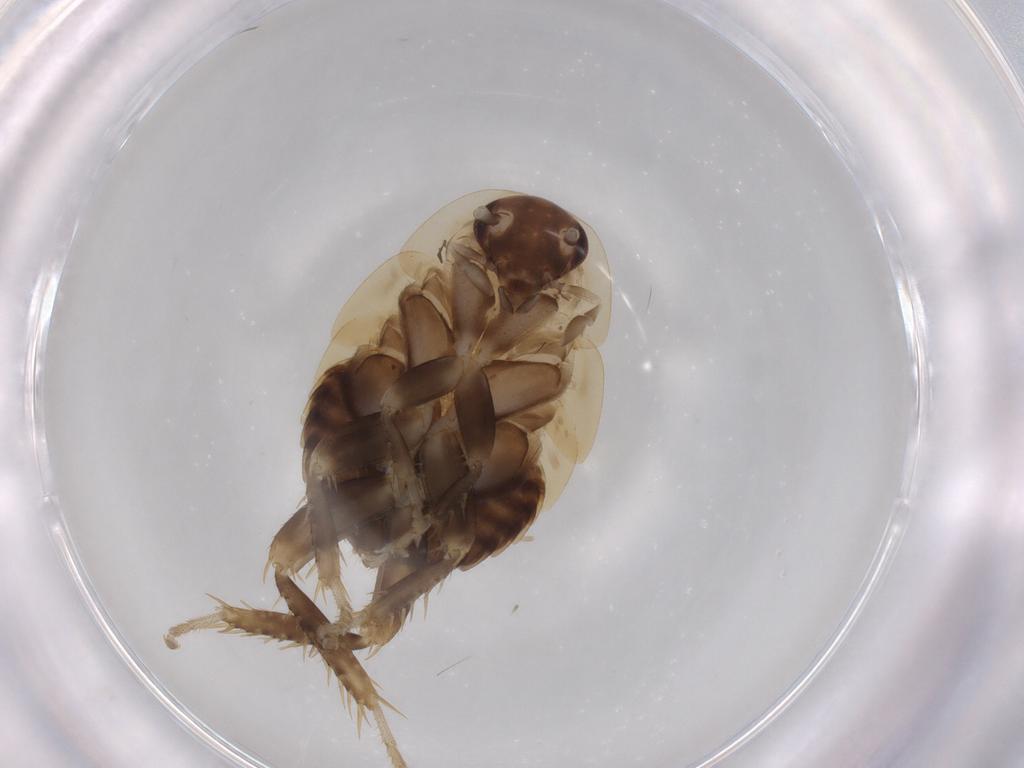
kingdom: Animalia
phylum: Arthropoda
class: Insecta
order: Blattodea
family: Ectobiidae
